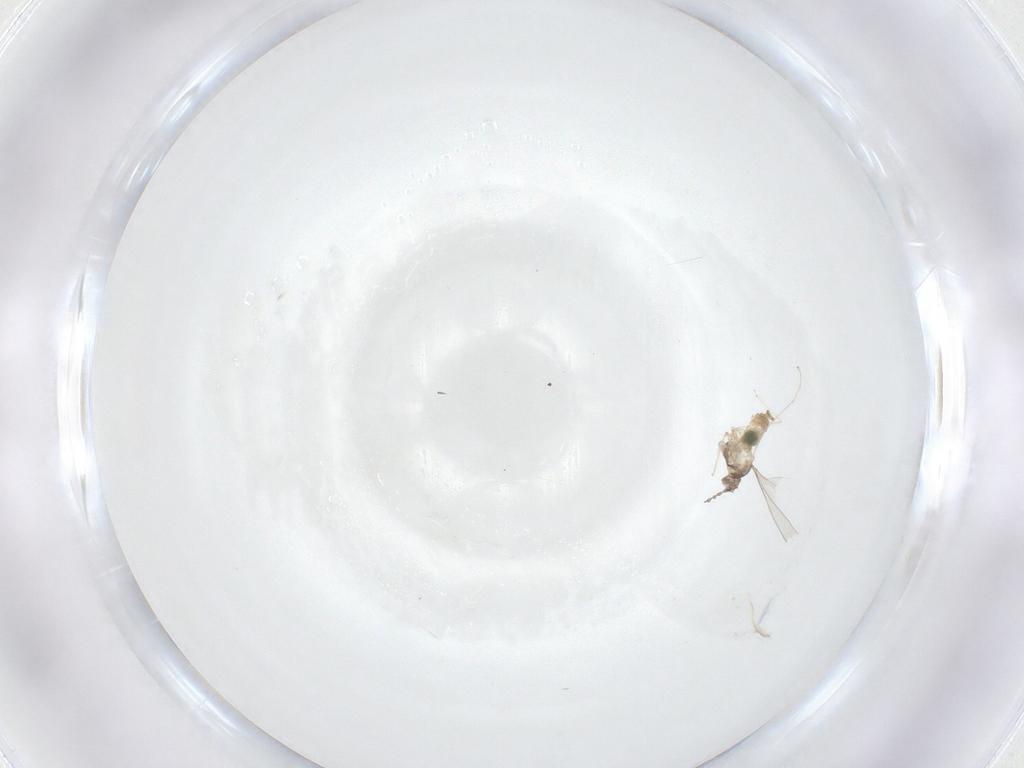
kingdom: Animalia
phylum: Arthropoda
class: Insecta
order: Diptera
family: Cecidomyiidae
